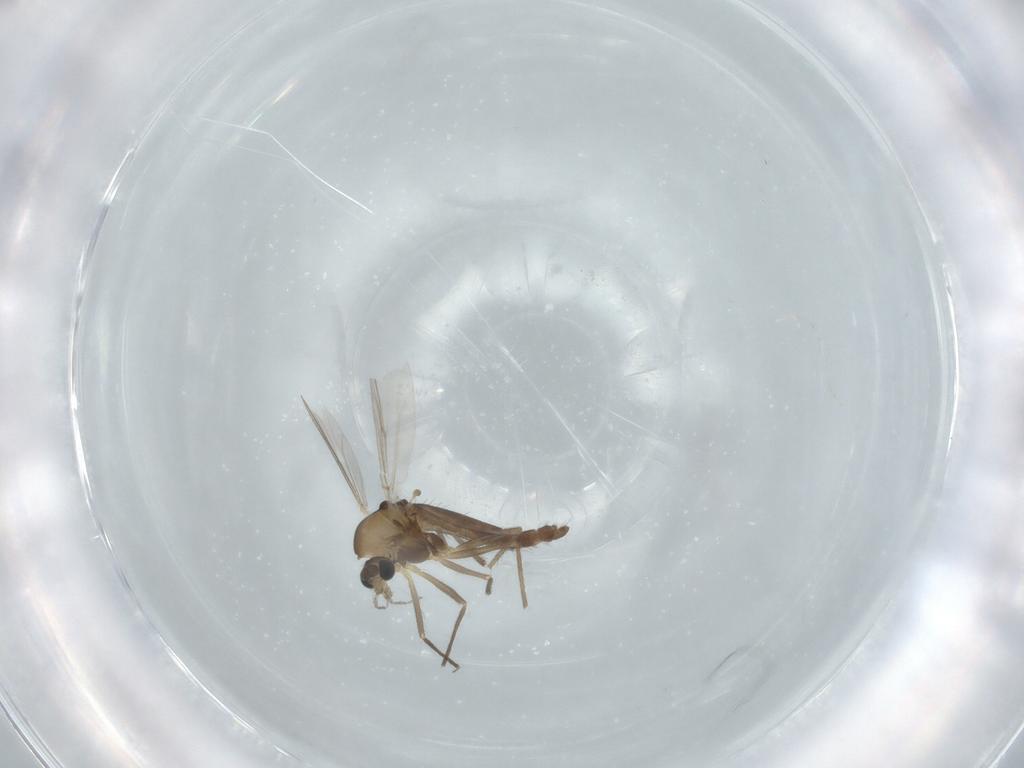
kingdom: Animalia
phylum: Arthropoda
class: Insecta
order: Diptera
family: Chironomidae
